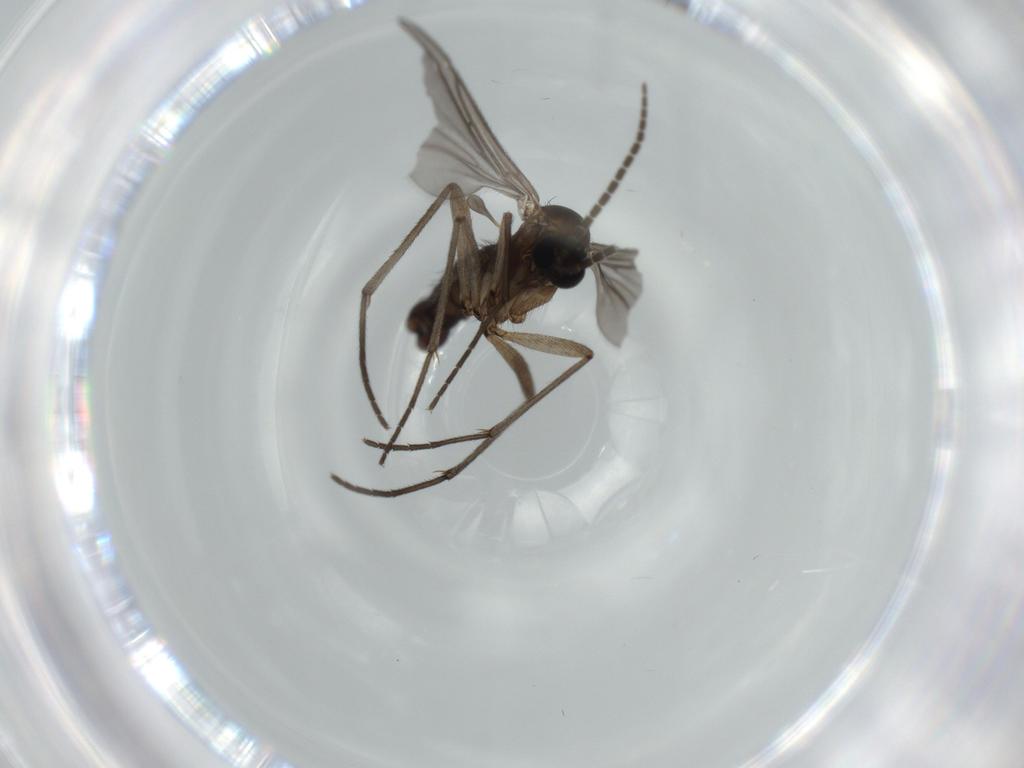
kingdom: Animalia
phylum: Arthropoda
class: Insecta
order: Diptera
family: Sciaridae
